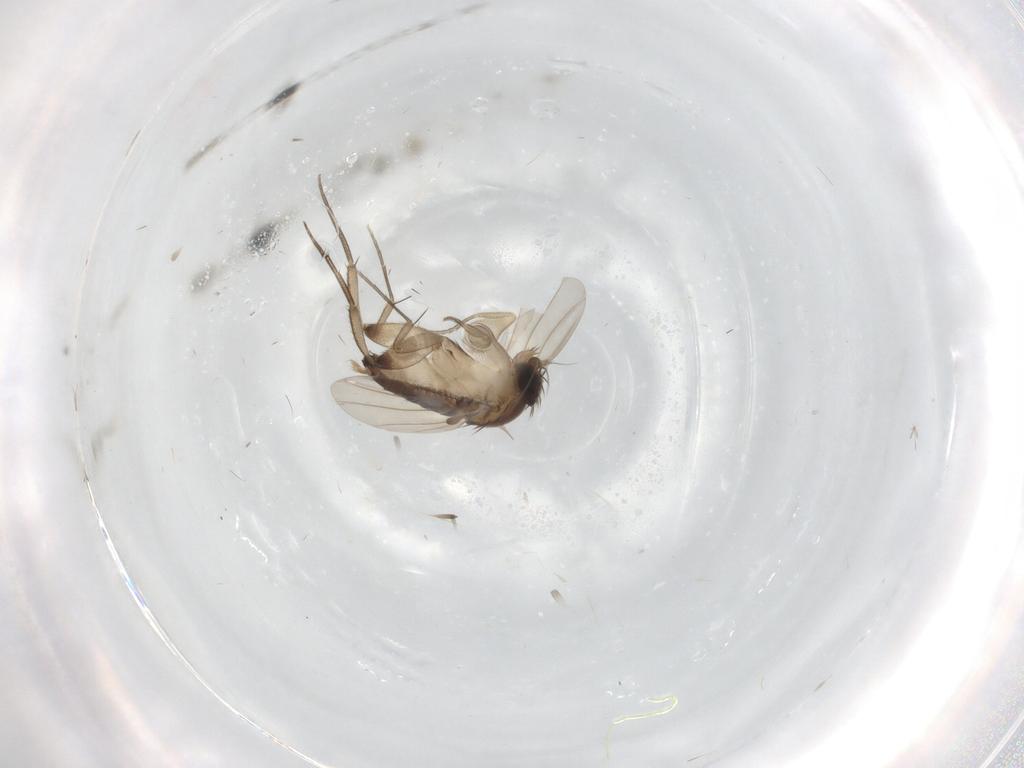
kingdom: Animalia
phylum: Arthropoda
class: Insecta
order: Diptera
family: Phoridae
